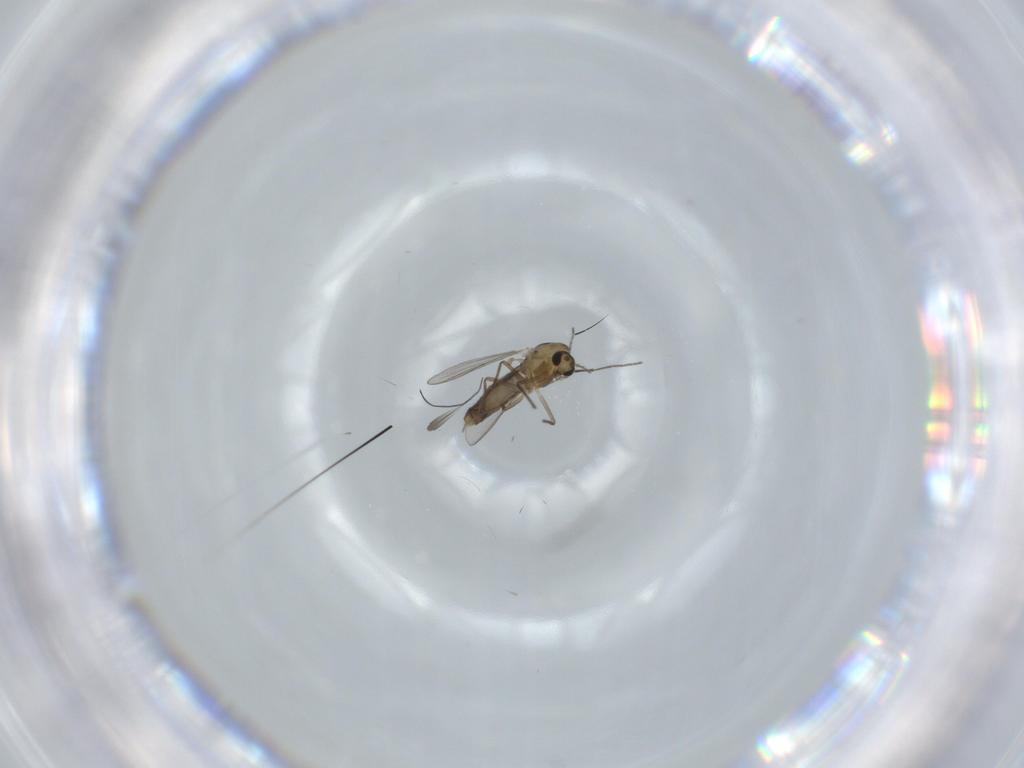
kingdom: Animalia
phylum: Arthropoda
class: Insecta
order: Diptera
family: Chironomidae
